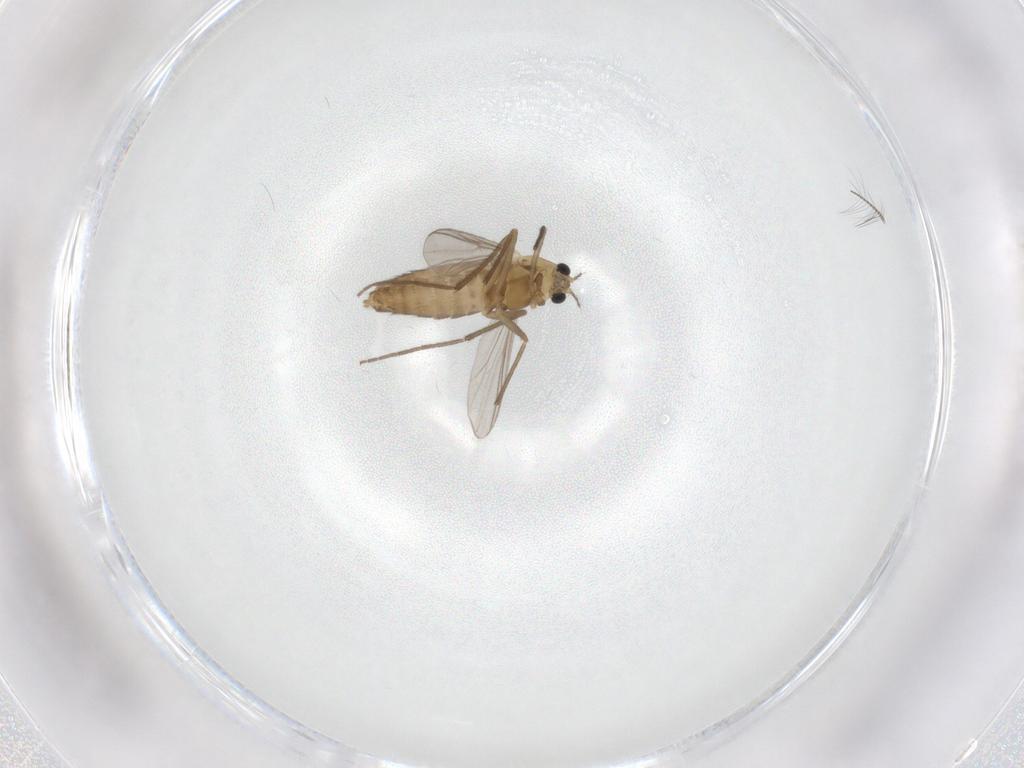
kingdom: Animalia
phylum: Arthropoda
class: Insecta
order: Diptera
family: Chironomidae
